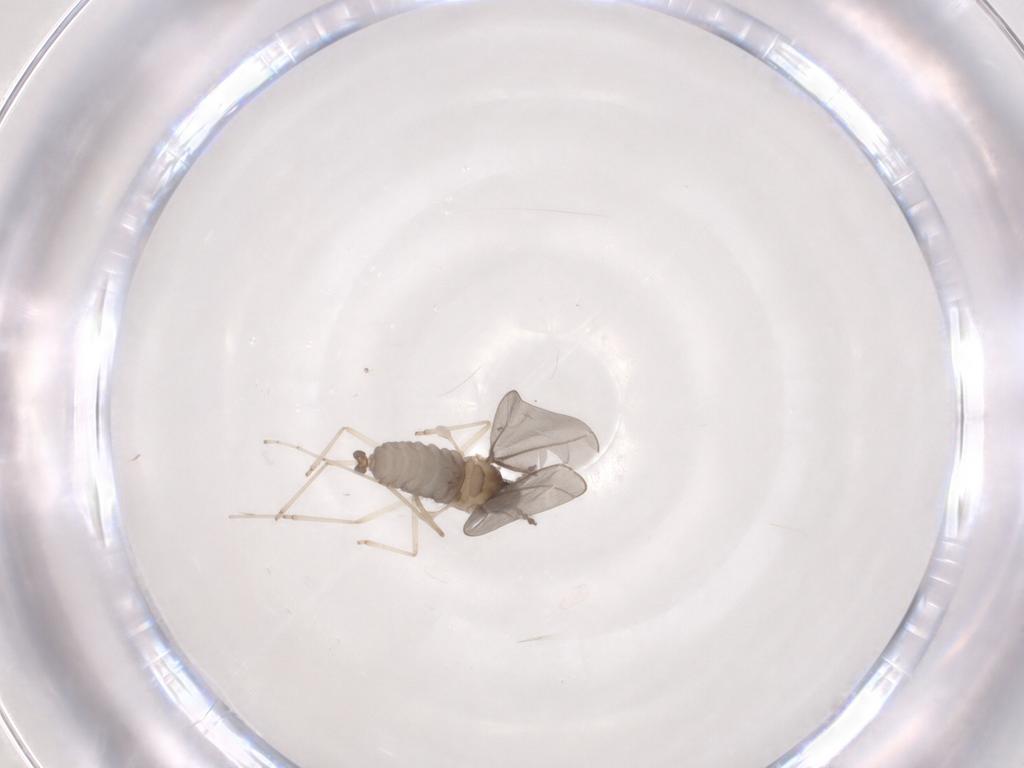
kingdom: Animalia
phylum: Arthropoda
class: Insecta
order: Diptera
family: Cecidomyiidae
